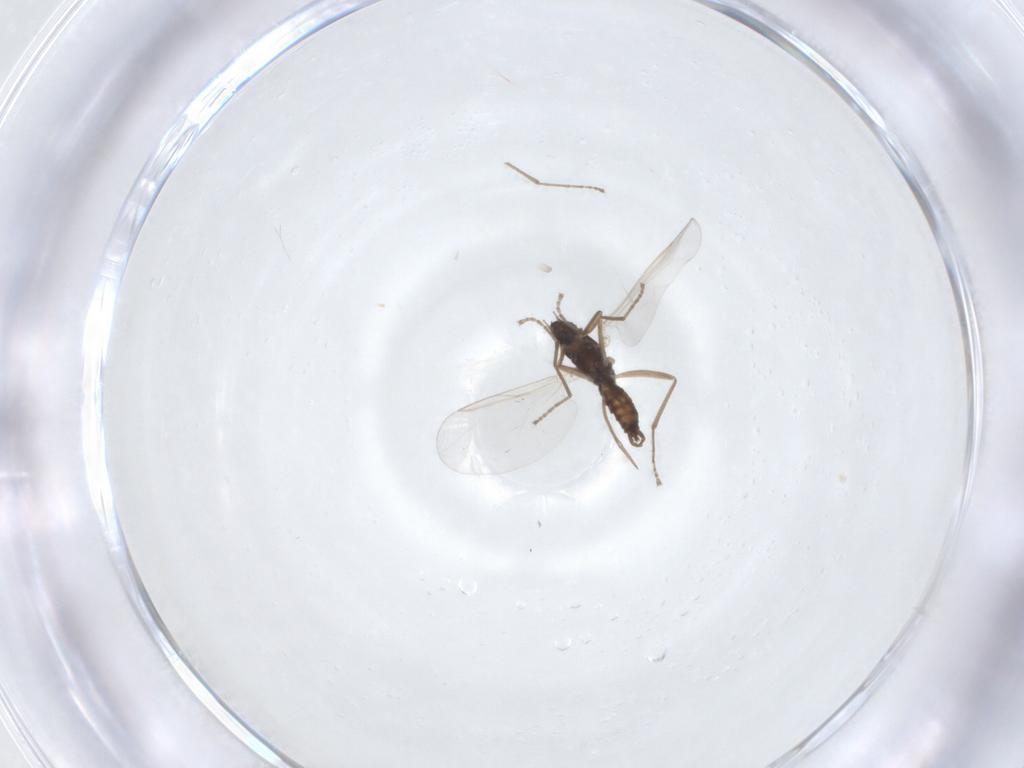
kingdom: Animalia
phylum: Arthropoda
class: Insecta
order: Diptera
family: Cecidomyiidae
